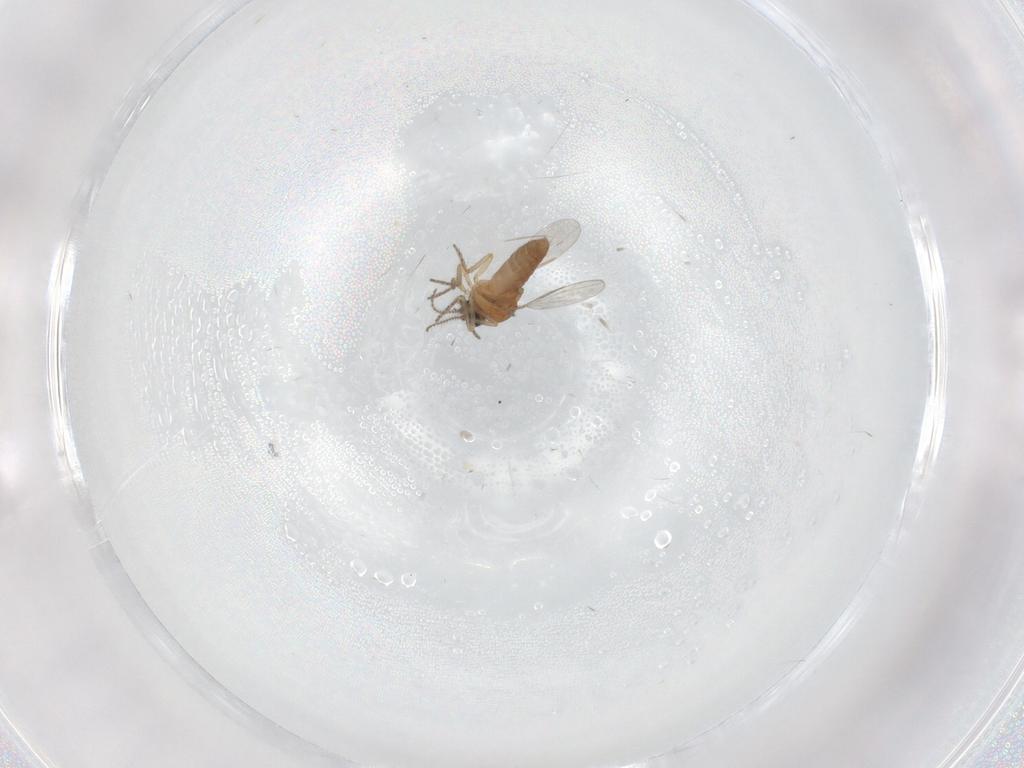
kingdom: Animalia
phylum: Arthropoda
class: Insecta
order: Diptera
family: Ceratopogonidae
